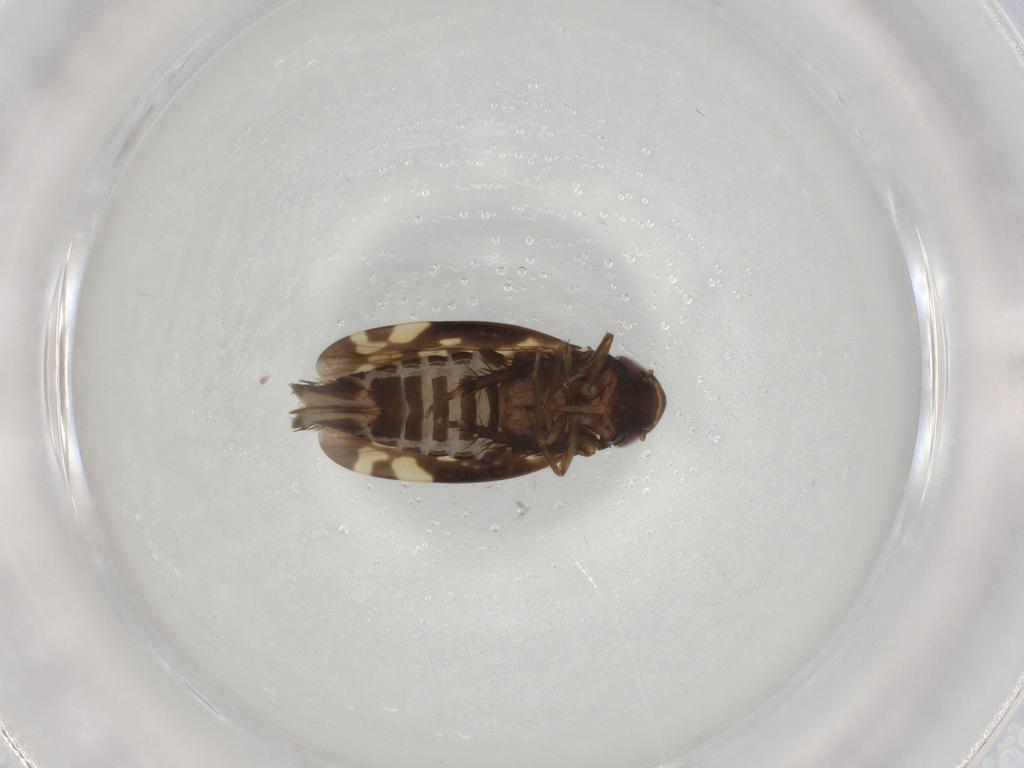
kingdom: Animalia
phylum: Arthropoda
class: Insecta
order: Hemiptera
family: Cicadellidae
